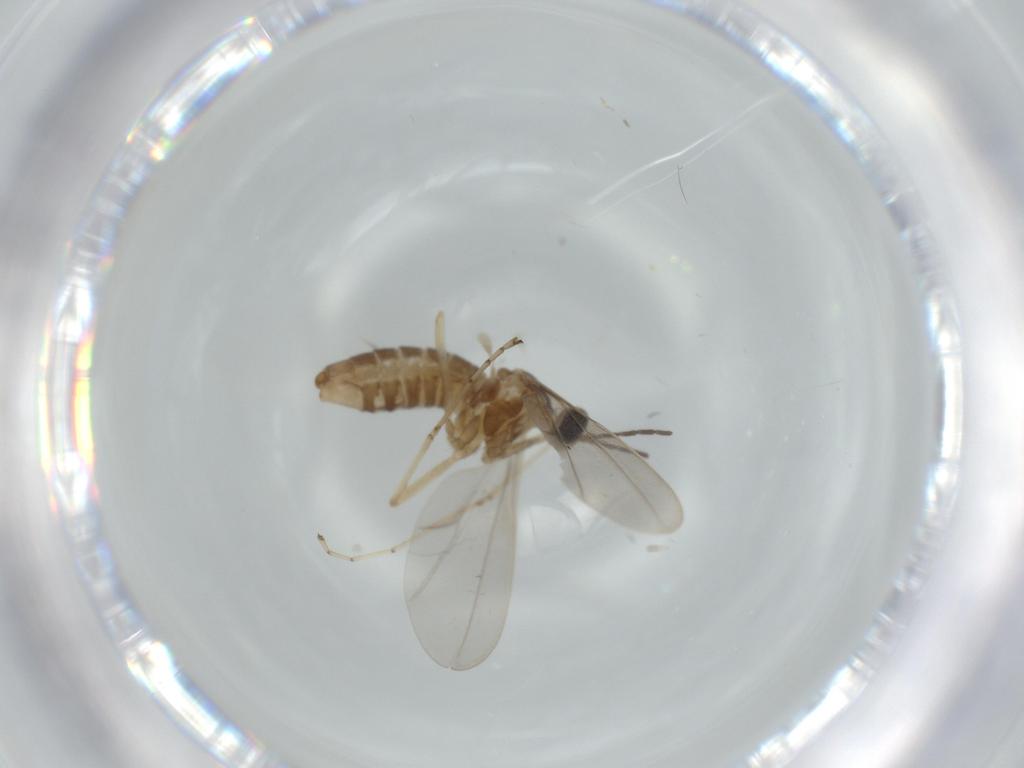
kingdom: Animalia
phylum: Arthropoda
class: Insecta
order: Diptera
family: Cecidomyiidae
